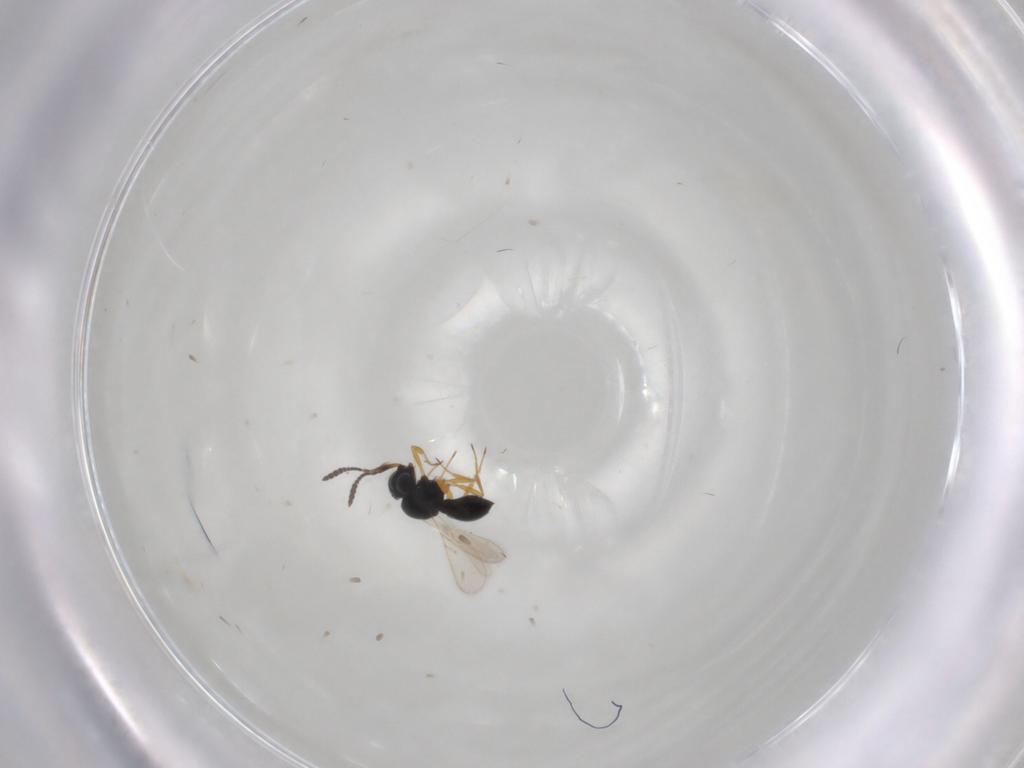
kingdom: Animalia
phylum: Arthropoda
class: Insecta
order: Hymenoptera
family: Scelionidae
